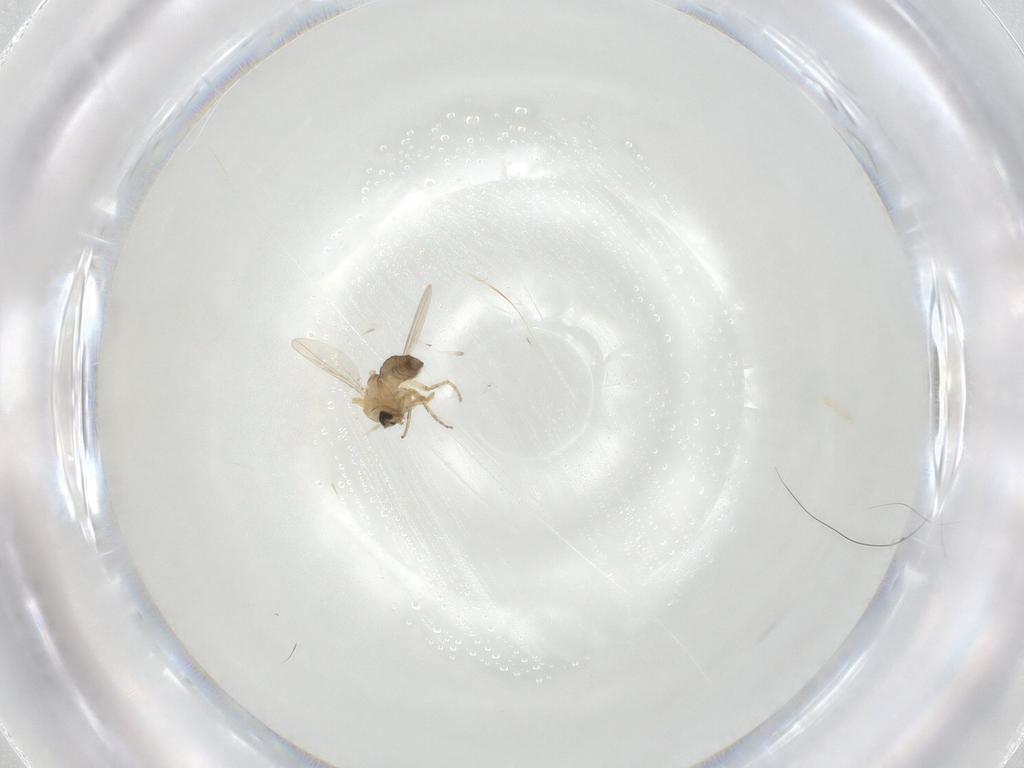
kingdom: Animalia
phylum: Arthropoda
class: Insecta
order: Diptera
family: Ceratopogonidae
